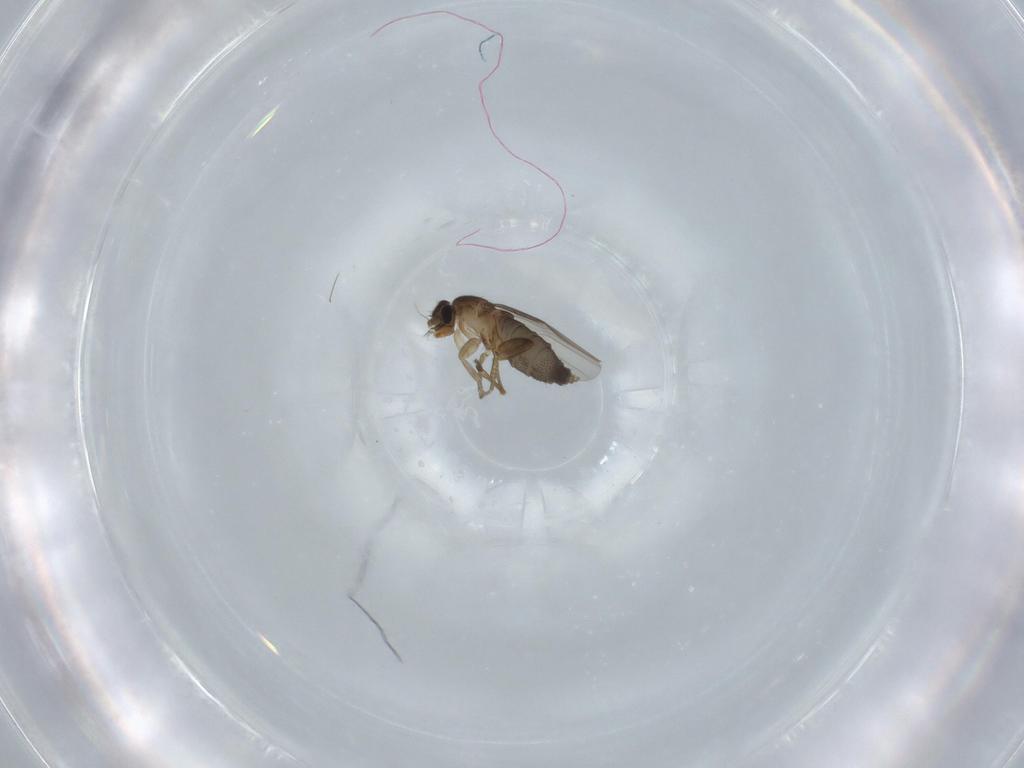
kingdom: Animalia
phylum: Arthropoda
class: Insecta
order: Diptera
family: Phoridae
